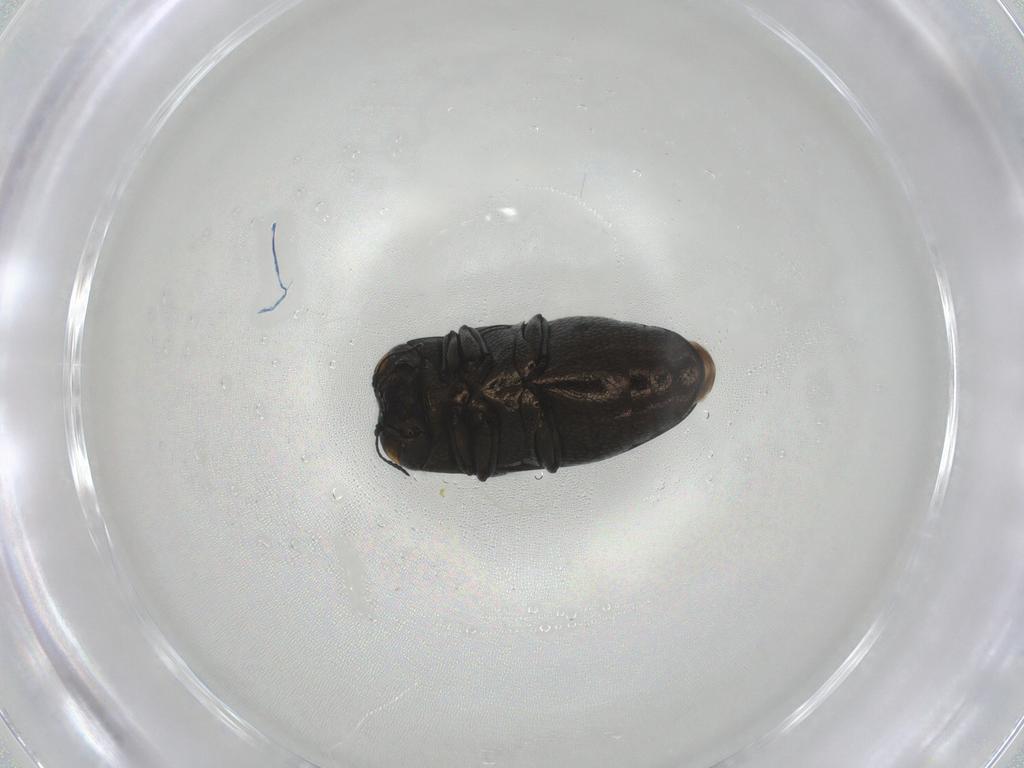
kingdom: Animalia
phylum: Arthropoda
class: Insecta
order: Coleoptera
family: Buprestidae
